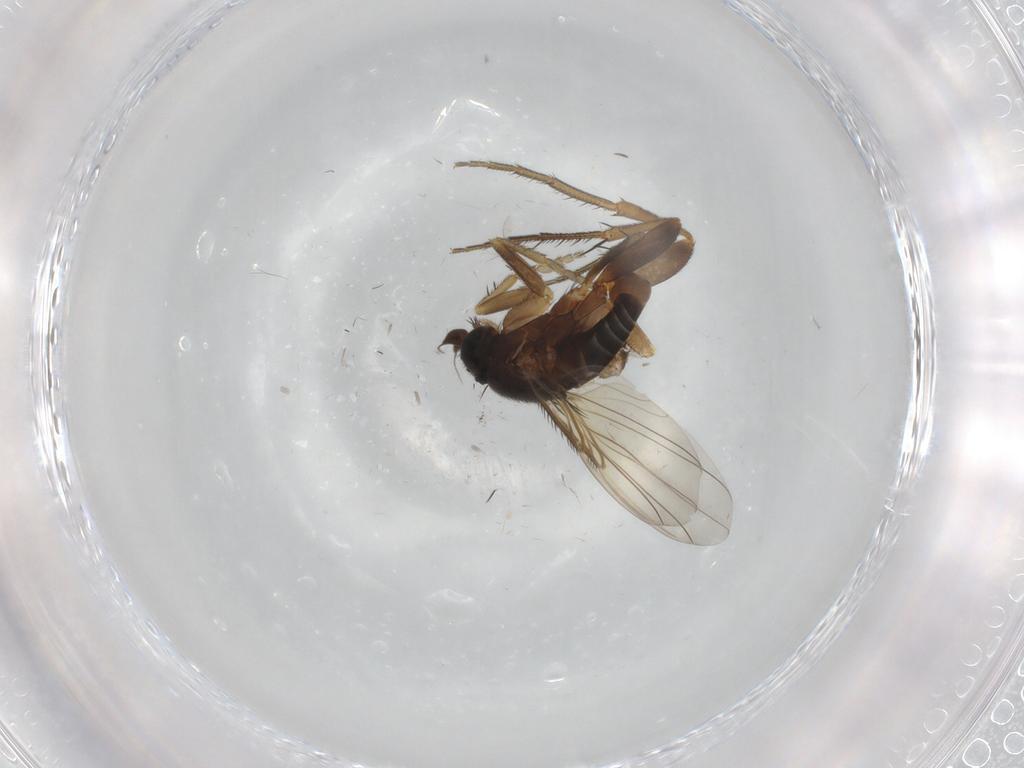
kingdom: Animalia
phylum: Arthropoda
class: Insecta
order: Diptera
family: Phoridae
